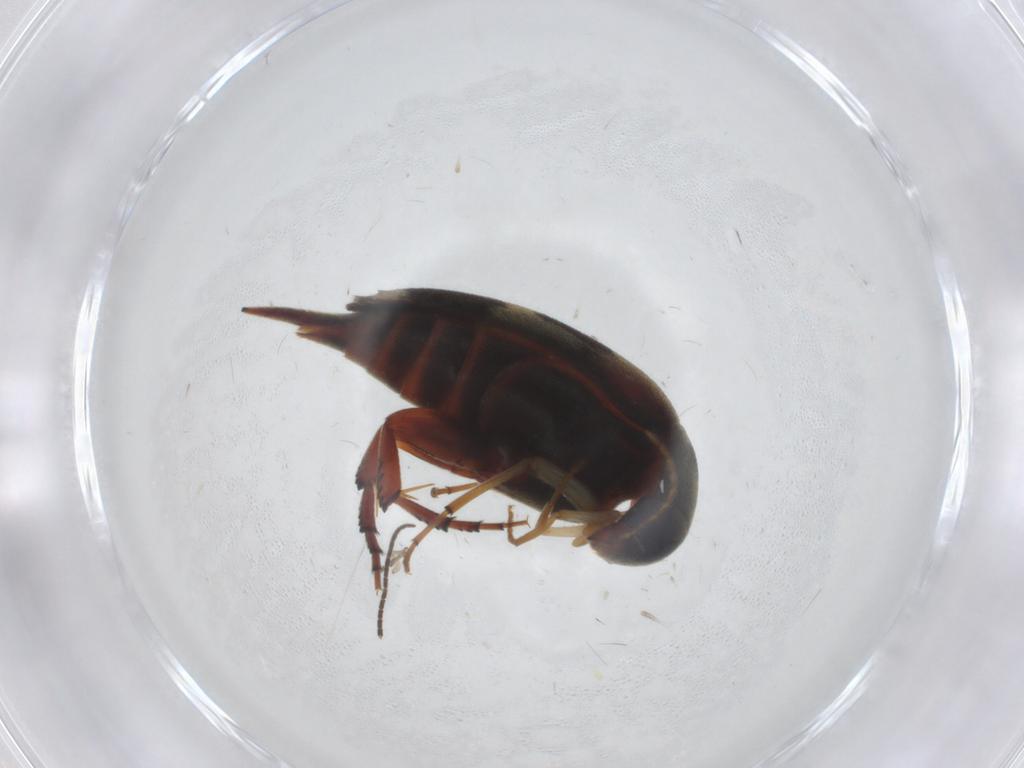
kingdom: Animalia
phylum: Arthropoda
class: Insecta
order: Coleoptera
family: Mordellidae
